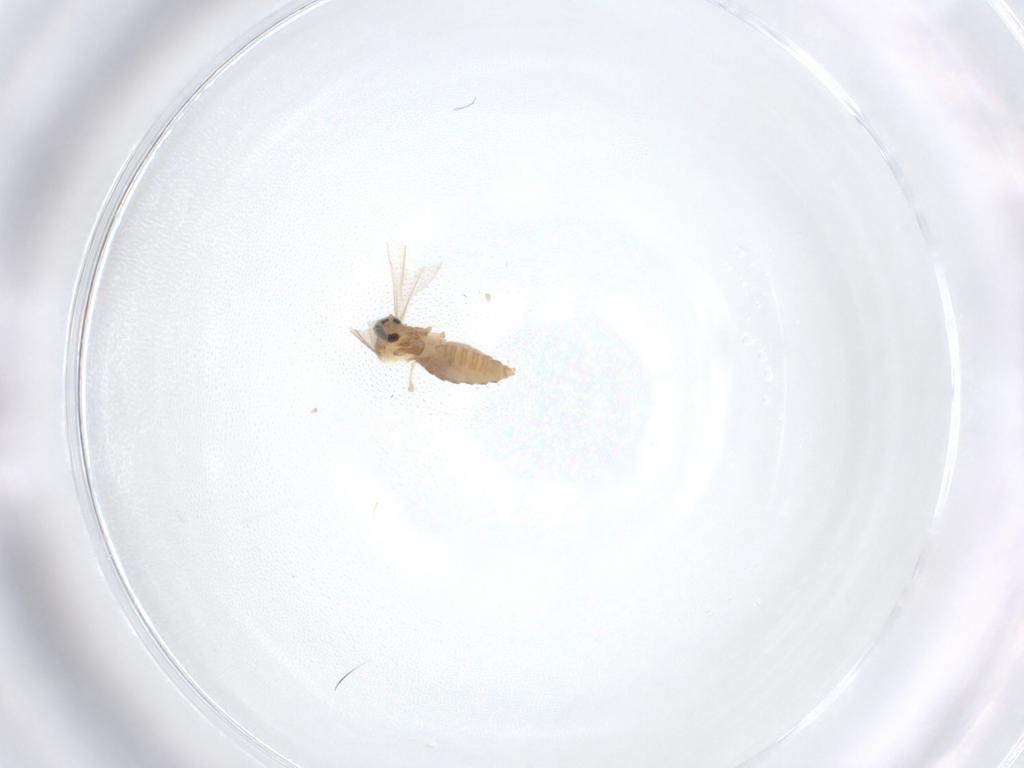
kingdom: Animalia
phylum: Arthropoda
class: Insecta
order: Diptera
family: Cecidomyiidae
